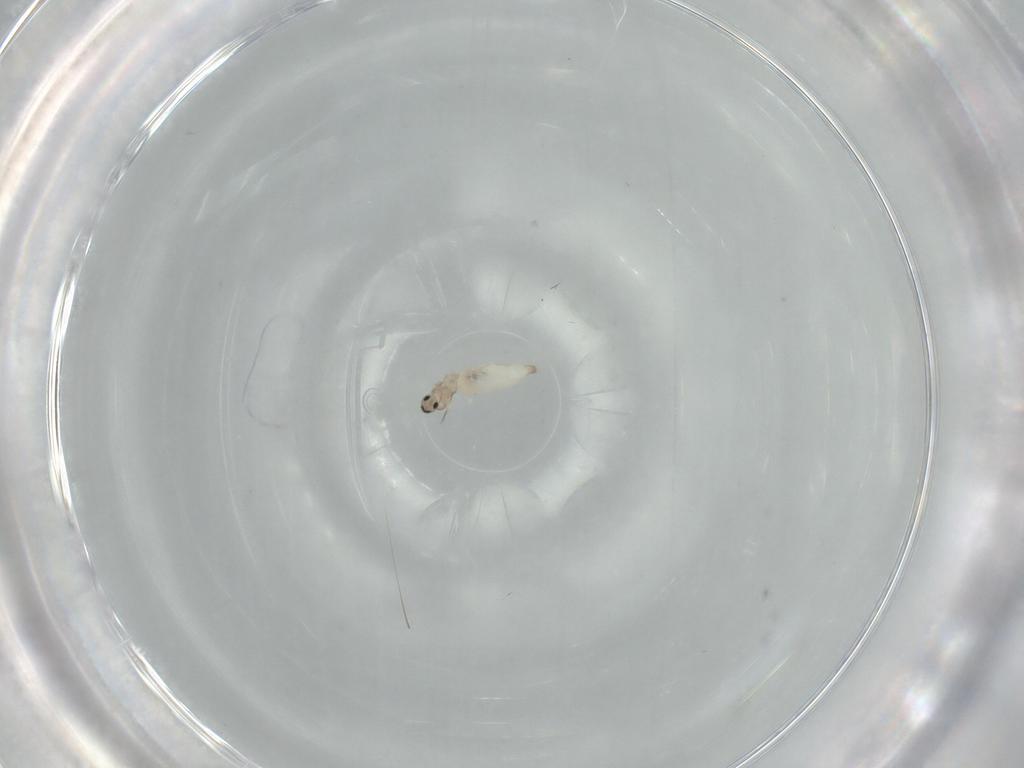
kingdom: Animalia
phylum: Arthropoda
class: Insecta
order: Diptera
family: Cecidomyiidae
